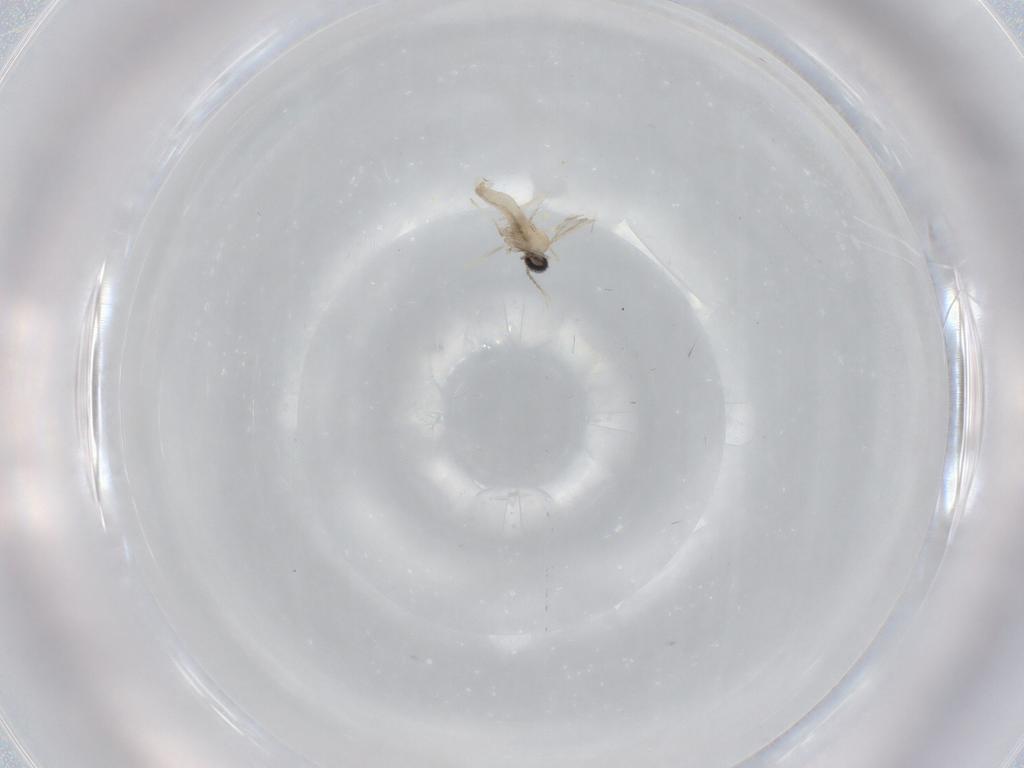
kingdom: Animalia
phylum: Arthropoda
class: Insecta
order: Diptera
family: Cecidomyiidae
